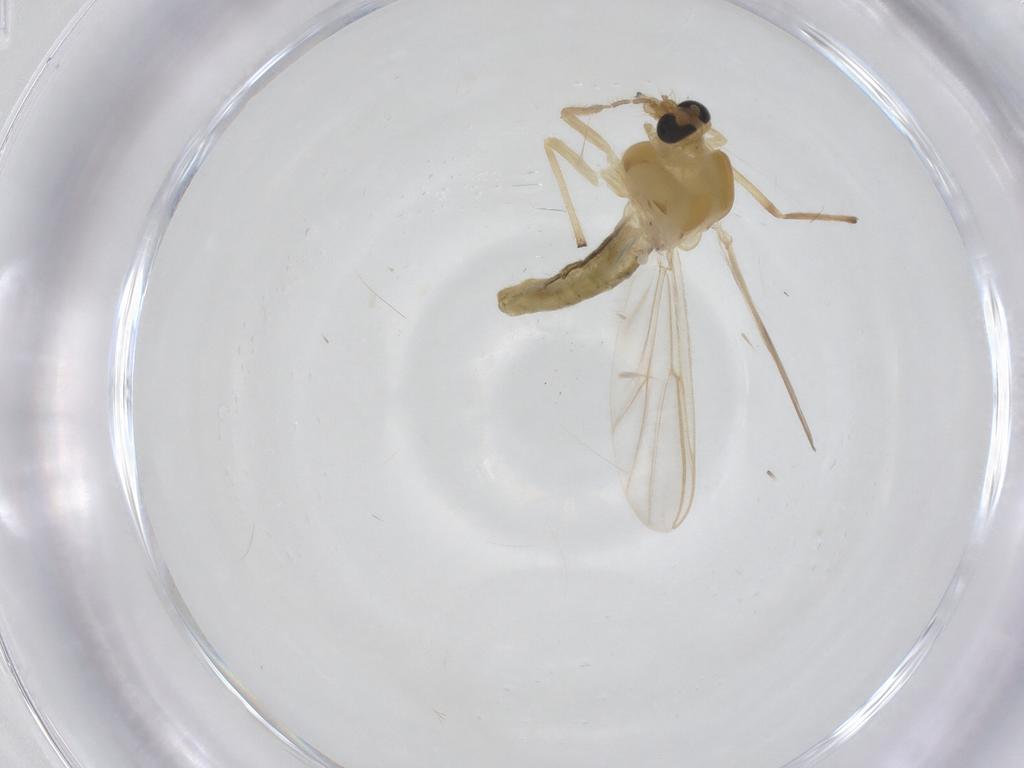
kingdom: Animalia
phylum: Arthropoda
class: Insecta
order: Diptera
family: Chironomidae
